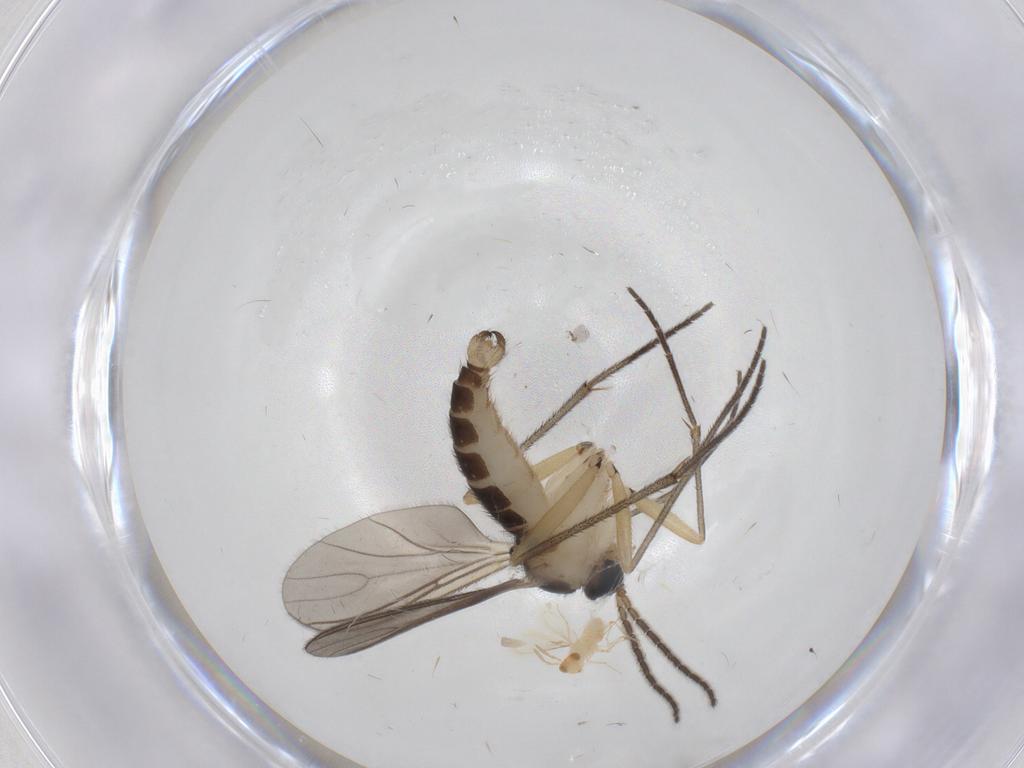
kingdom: Animalia
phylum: Arthropoda
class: Insecta
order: Diptera
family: Sciaridae
